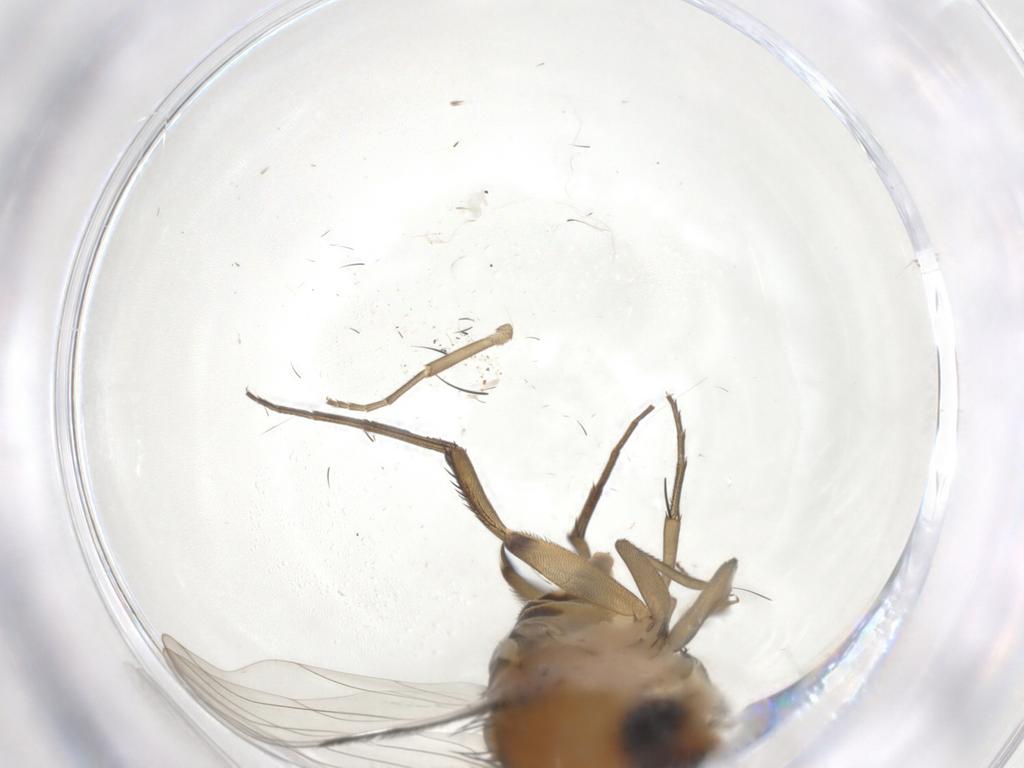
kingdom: Animalia
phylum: Arthropoda
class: Insecta
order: Diptera
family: Phoridae
